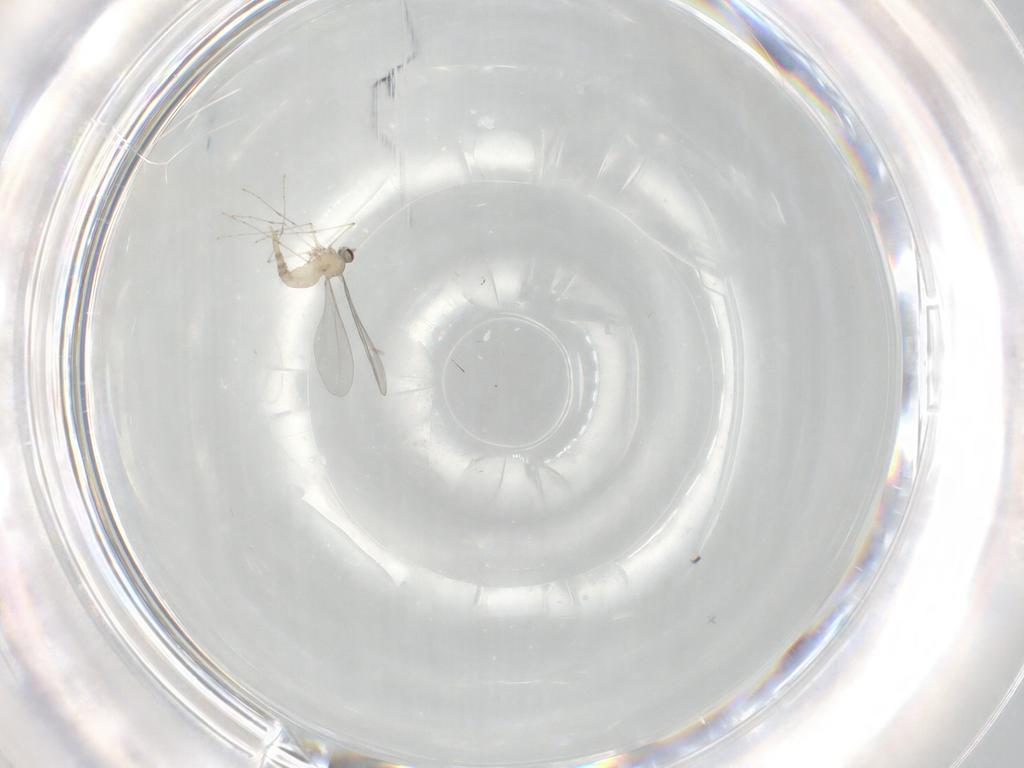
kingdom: Animalia
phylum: Arthropoda
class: Insecta
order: Diptera
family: Cecidomyiidae
